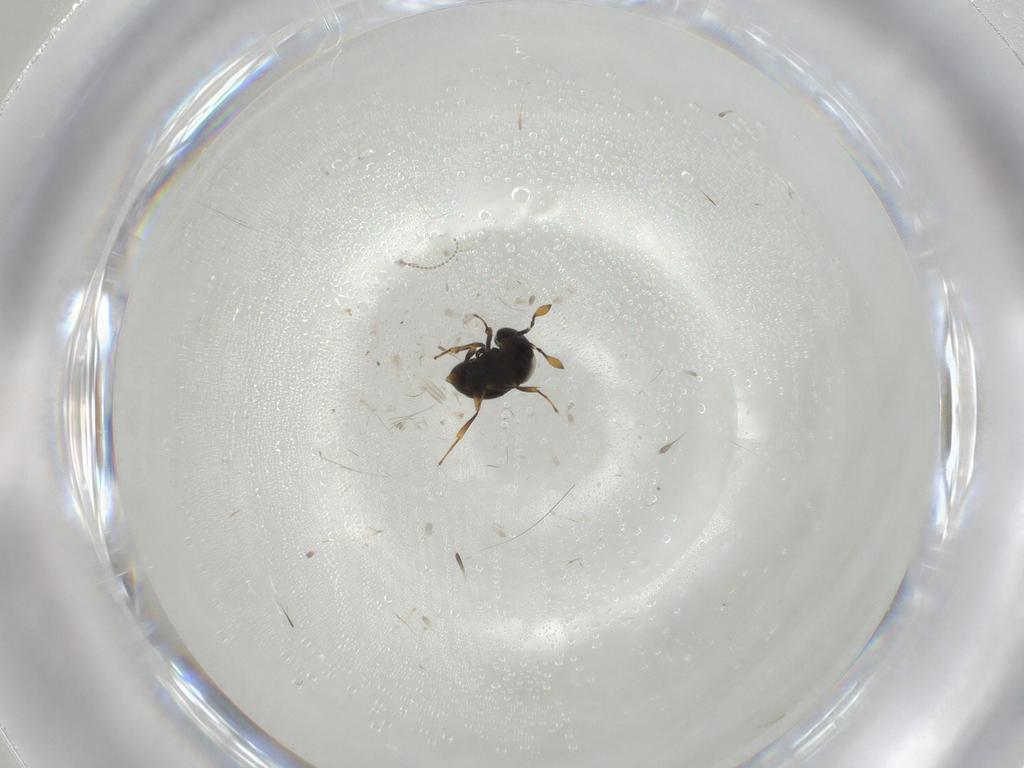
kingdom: Animalia
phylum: Arthropoda
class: Insecta
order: Hymenoptera
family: Scelionidae
